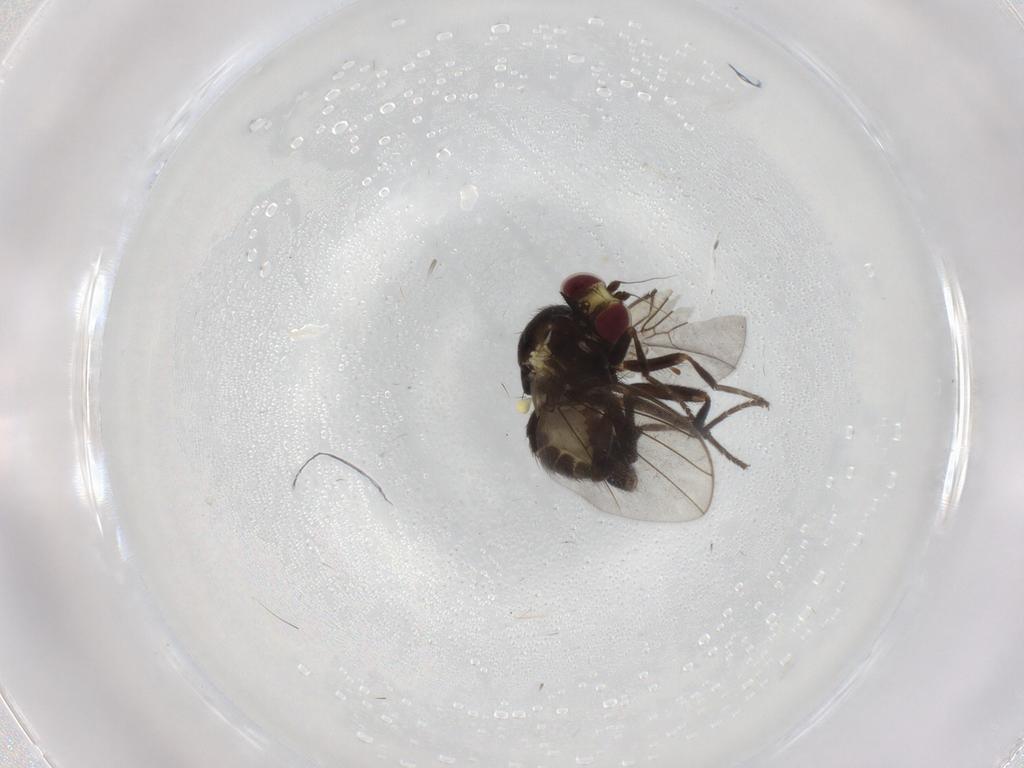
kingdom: Animalia
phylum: Arthropoda
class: Insecta
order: Diptera
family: Agromyzidae
